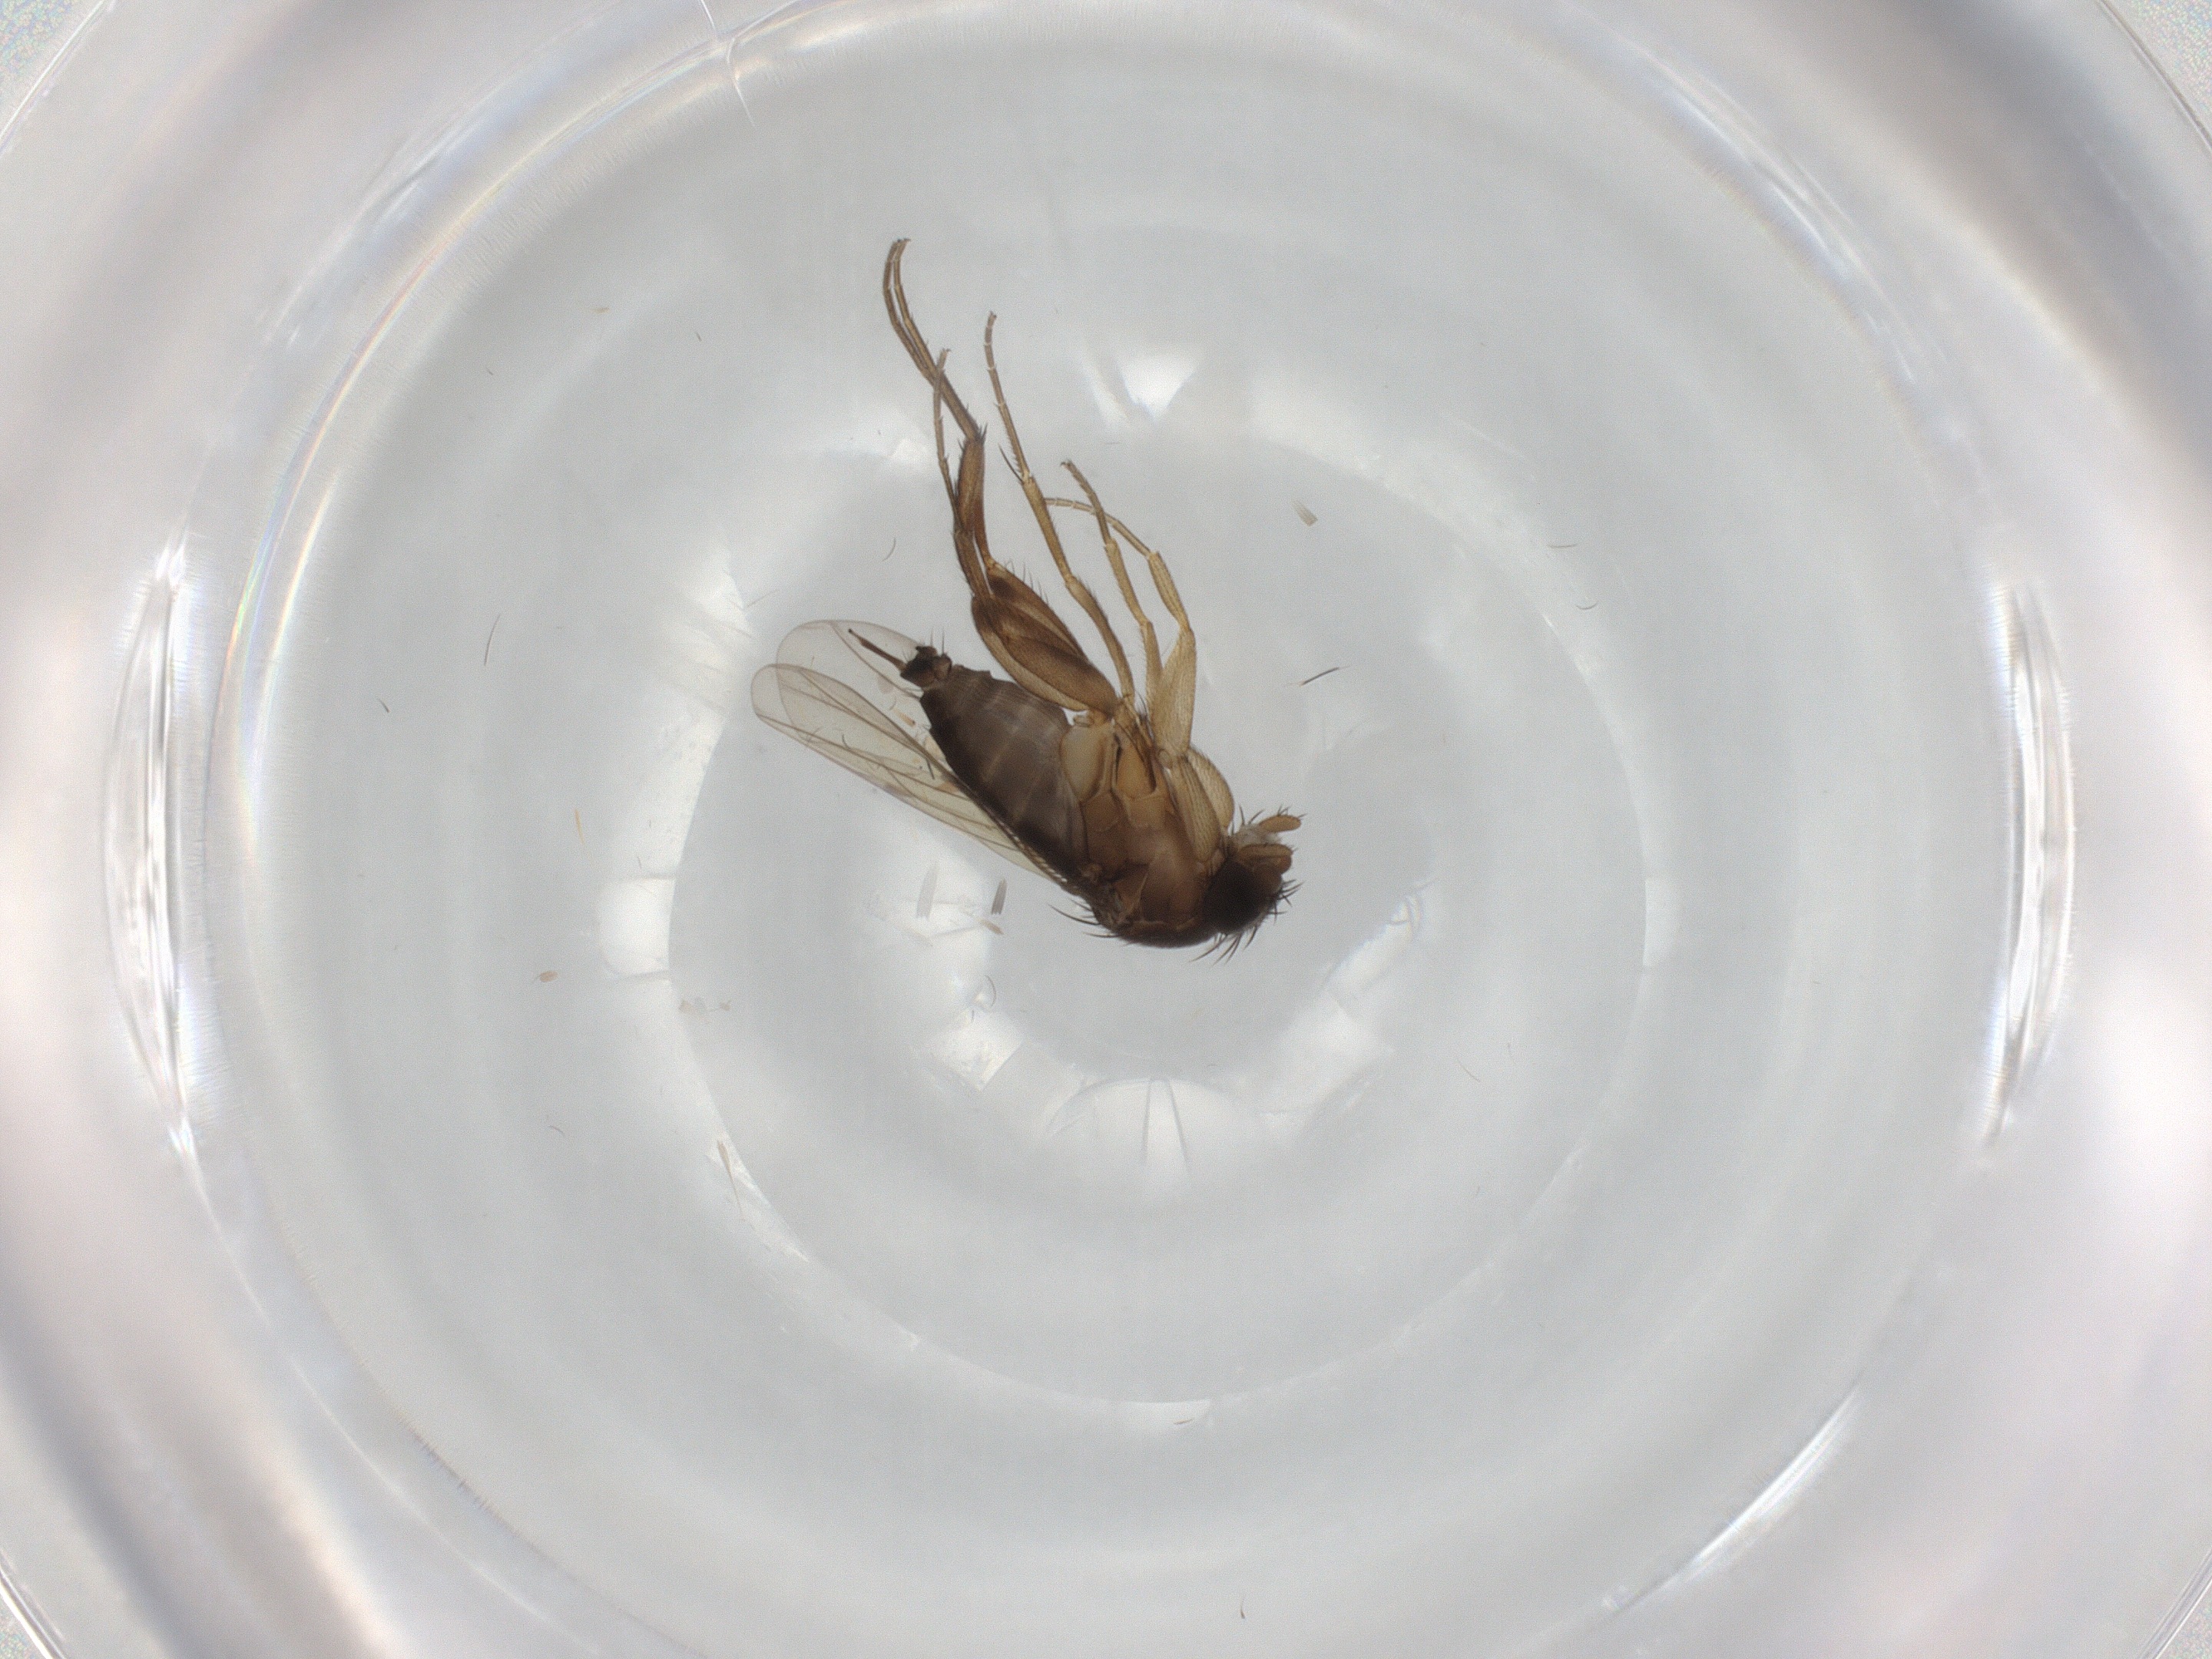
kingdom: Animalia
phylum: Arthropoda
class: Insecta
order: Diptera
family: Phoridae
